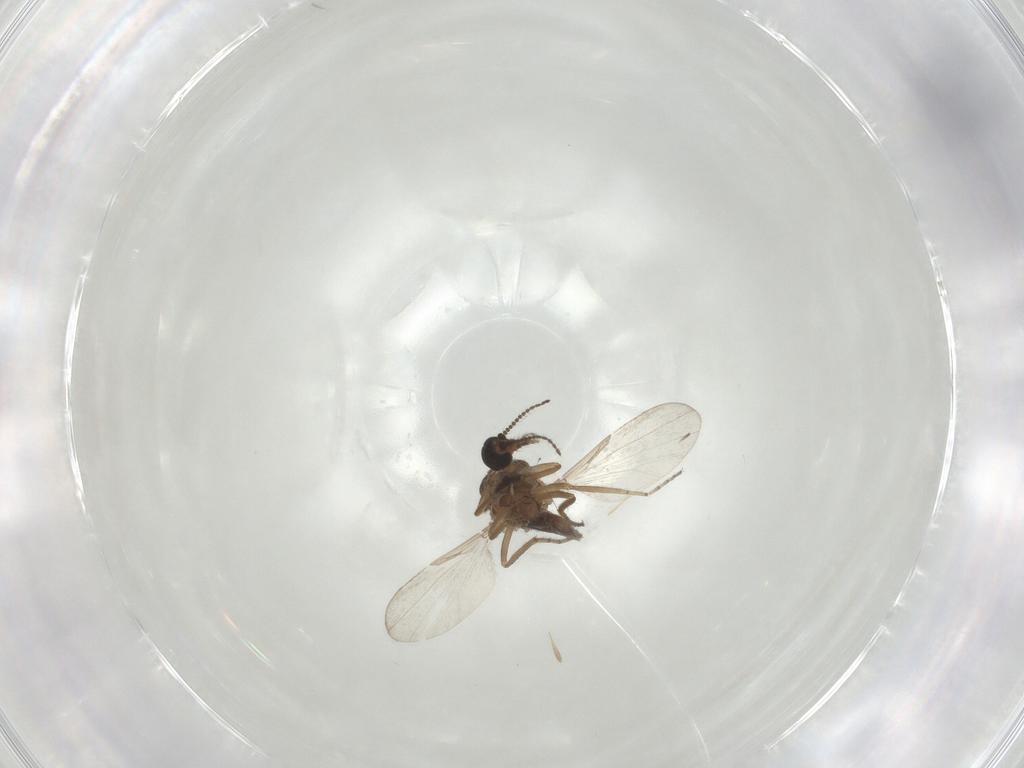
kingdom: Animalia
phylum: Arthropoda
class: Insecta
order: Diptera
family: Ceratopogonidae
